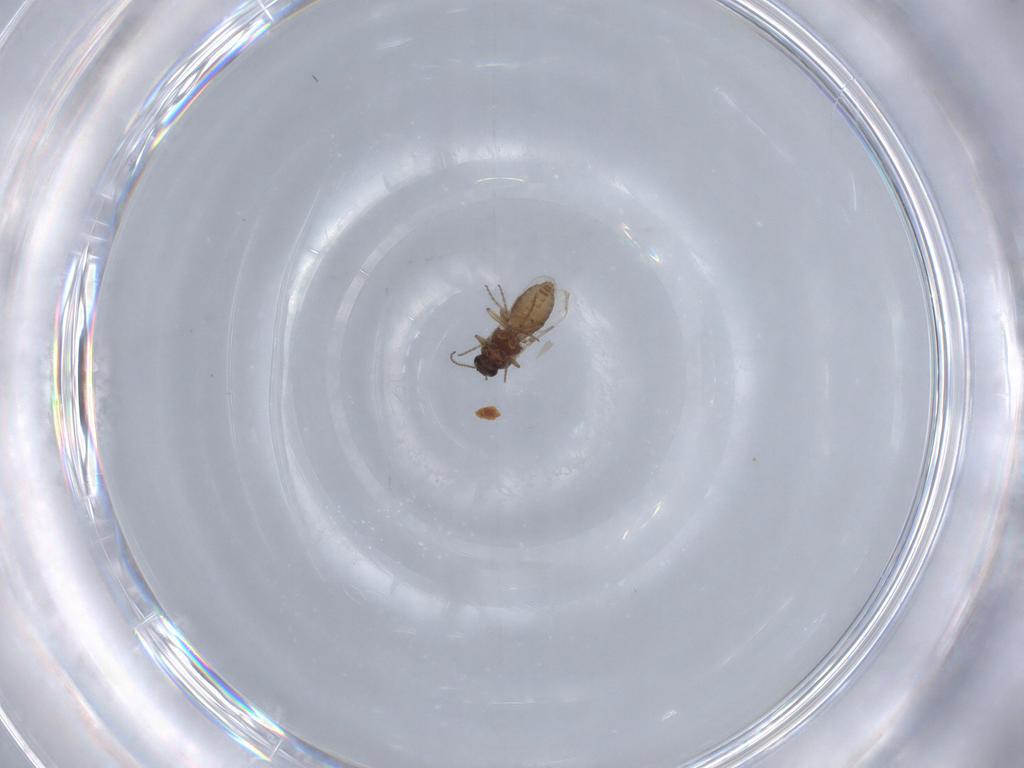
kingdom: Animalia
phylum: Arthropoda
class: Insecta
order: Diptera
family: Ceratopogonidae
